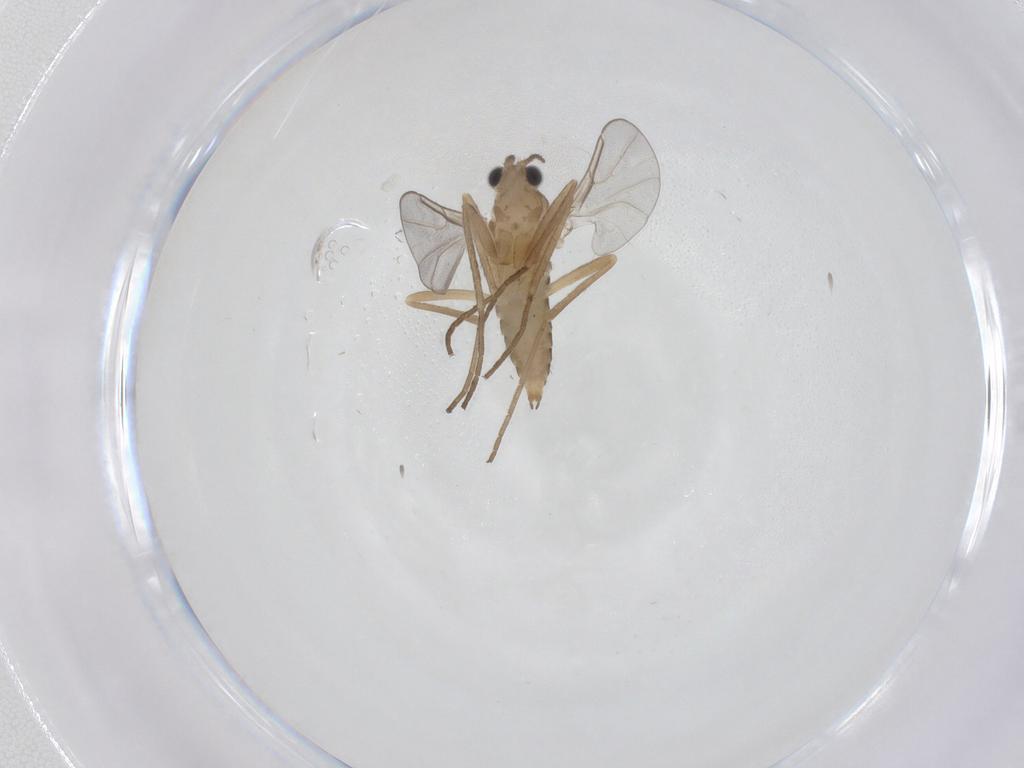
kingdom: Animalia
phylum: Arthropoda
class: Insecta
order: Diptera
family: Cecidomyiidae
